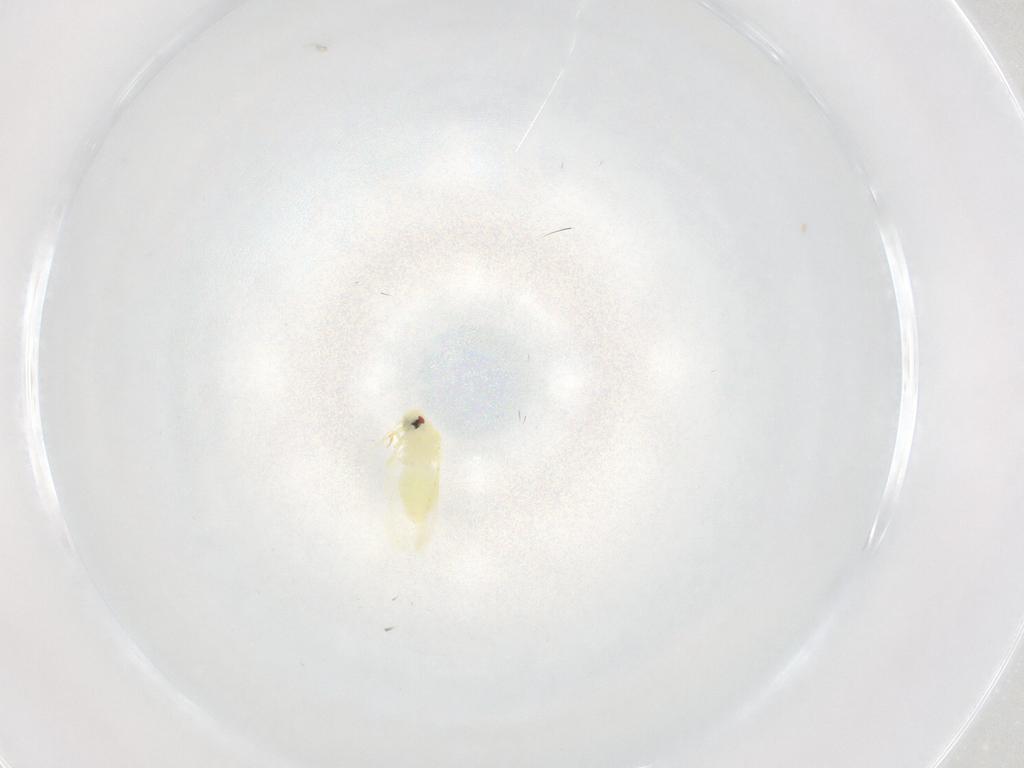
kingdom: Animalia
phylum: Arthropoda
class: Insecta
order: Hemiptera
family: Aleyrodidae
